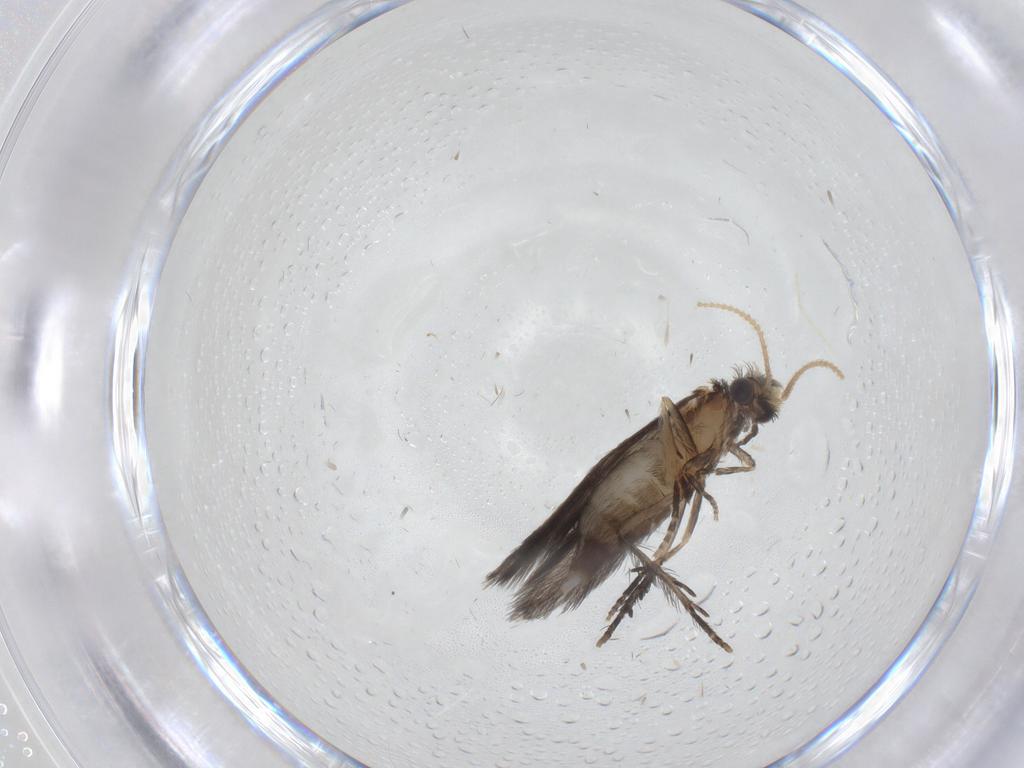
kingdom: Animalia
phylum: Arthropoda
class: Insecta
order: Trichoptera
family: Hydroptilidae
